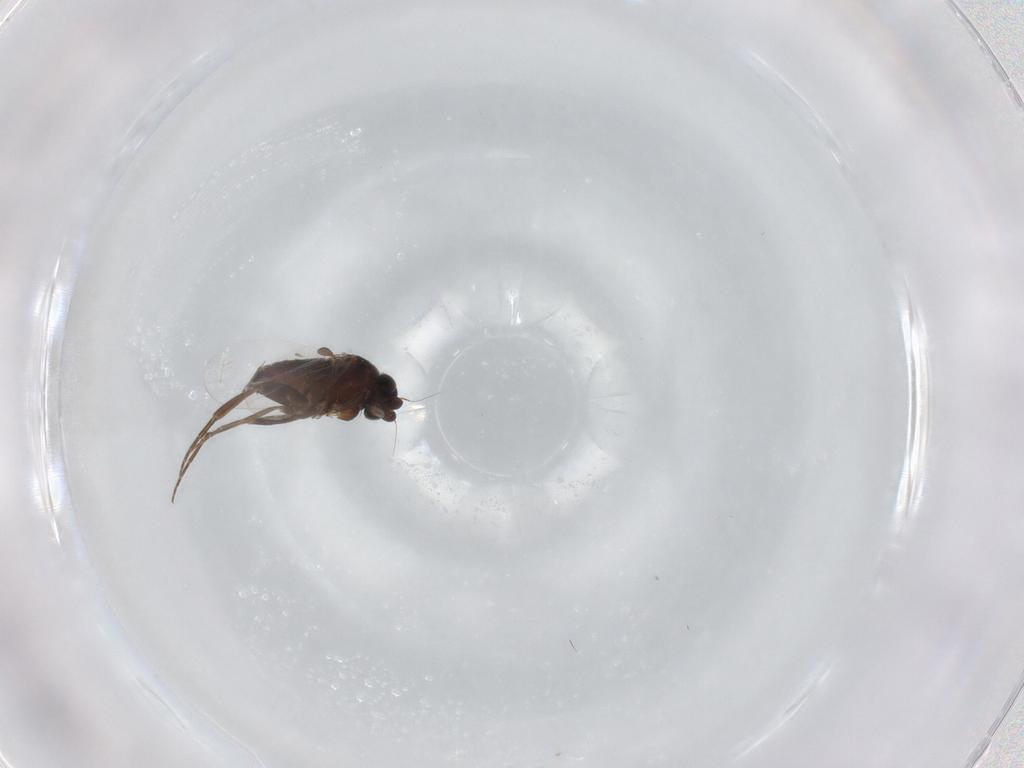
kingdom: Animalia
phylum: Arthropoda
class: Insecta
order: Diptera
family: Phoridae
